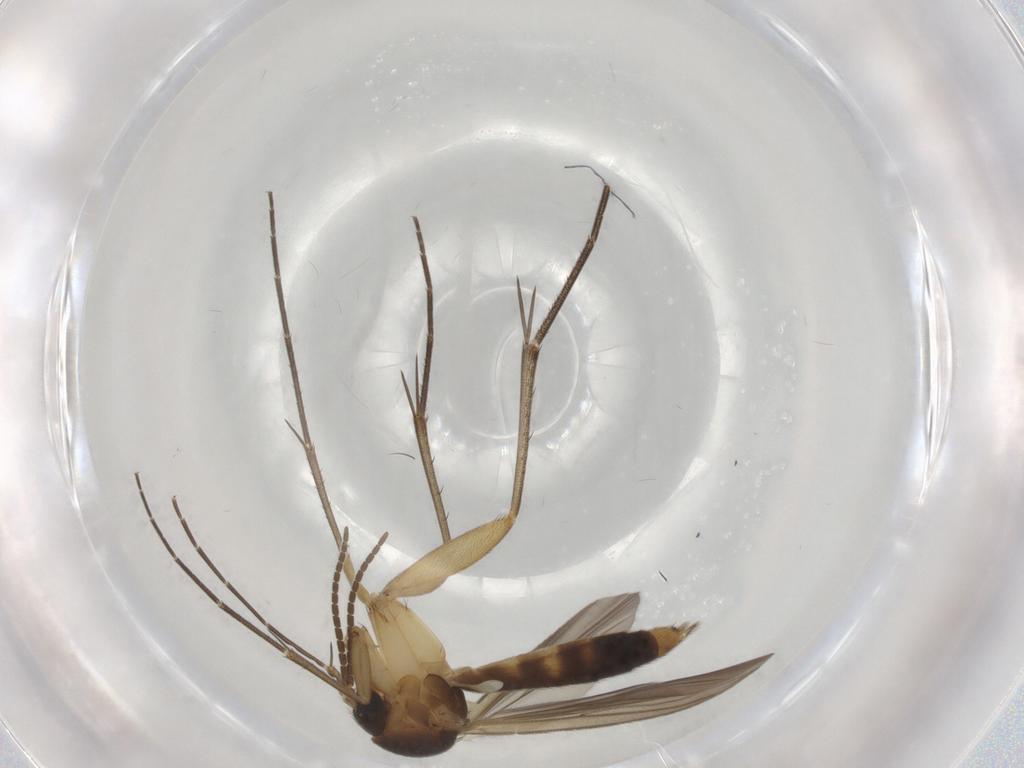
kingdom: Animalia
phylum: Arthropoda
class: Insecta
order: Diptera
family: Mycetophilidae
